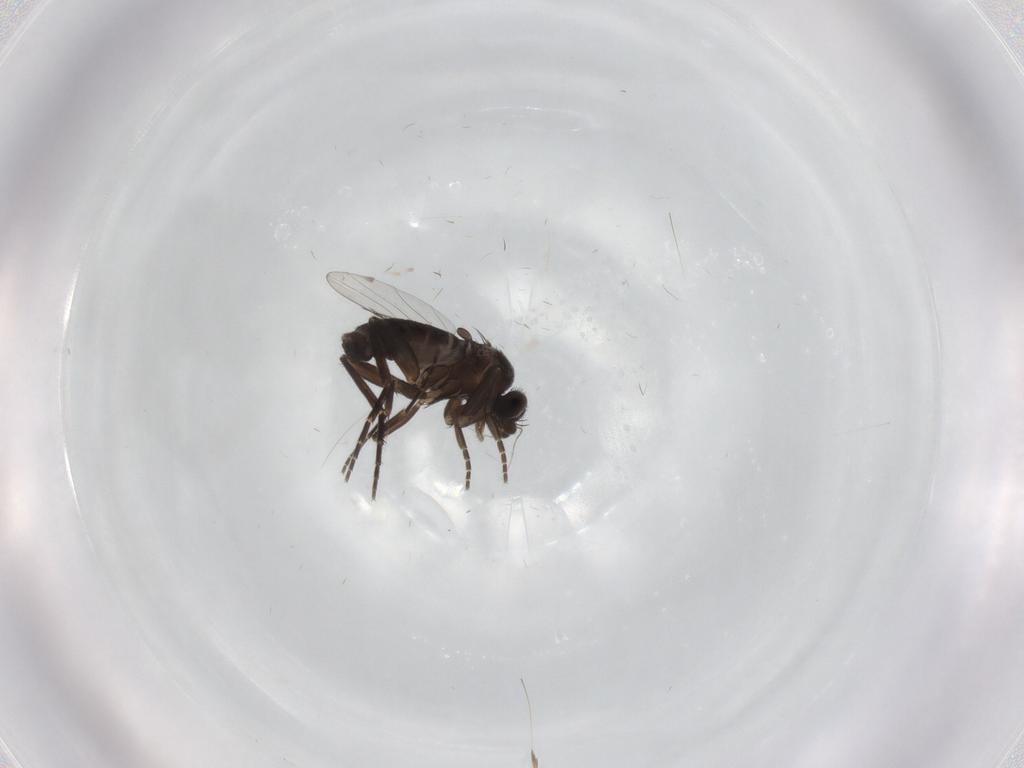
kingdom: Animalia
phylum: Arthropoda
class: Insecta
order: Diptera
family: Phoridae
